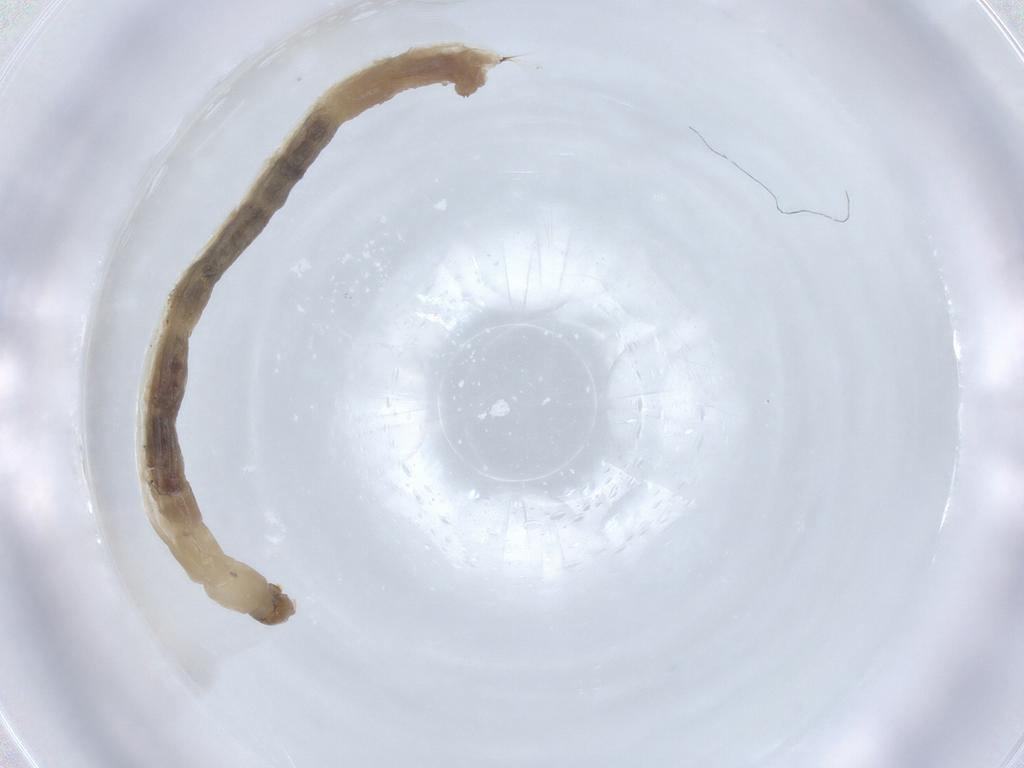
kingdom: Animalia
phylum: Arthropoda
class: Insecta
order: Diptera
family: Chironomidae
